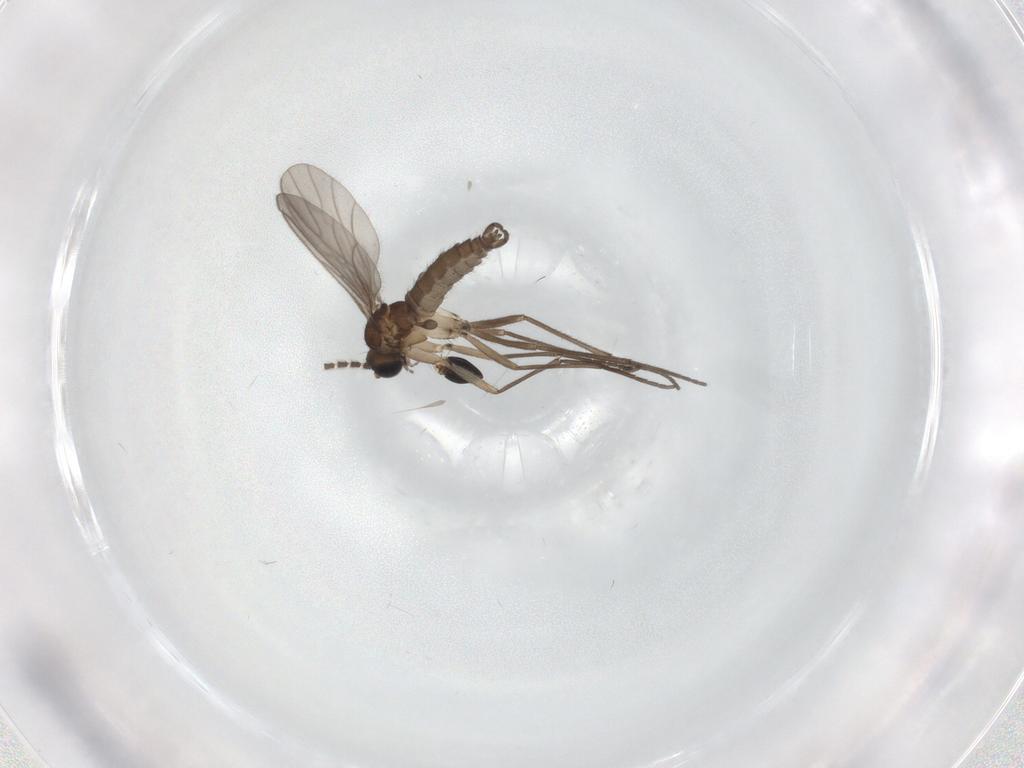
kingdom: Animalia
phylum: Arthropoda
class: Insecta
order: Diptera
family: Sciaridae
